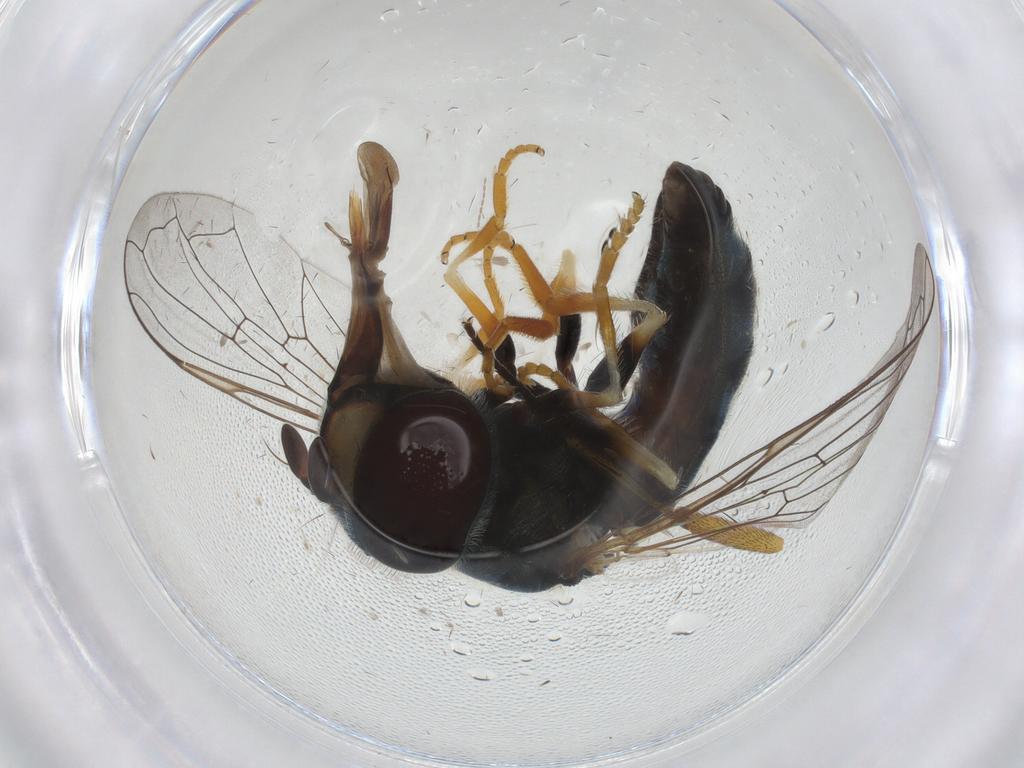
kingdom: Animalia
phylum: Arthropoda
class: Insecta
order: Diptera
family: Syrphidae
